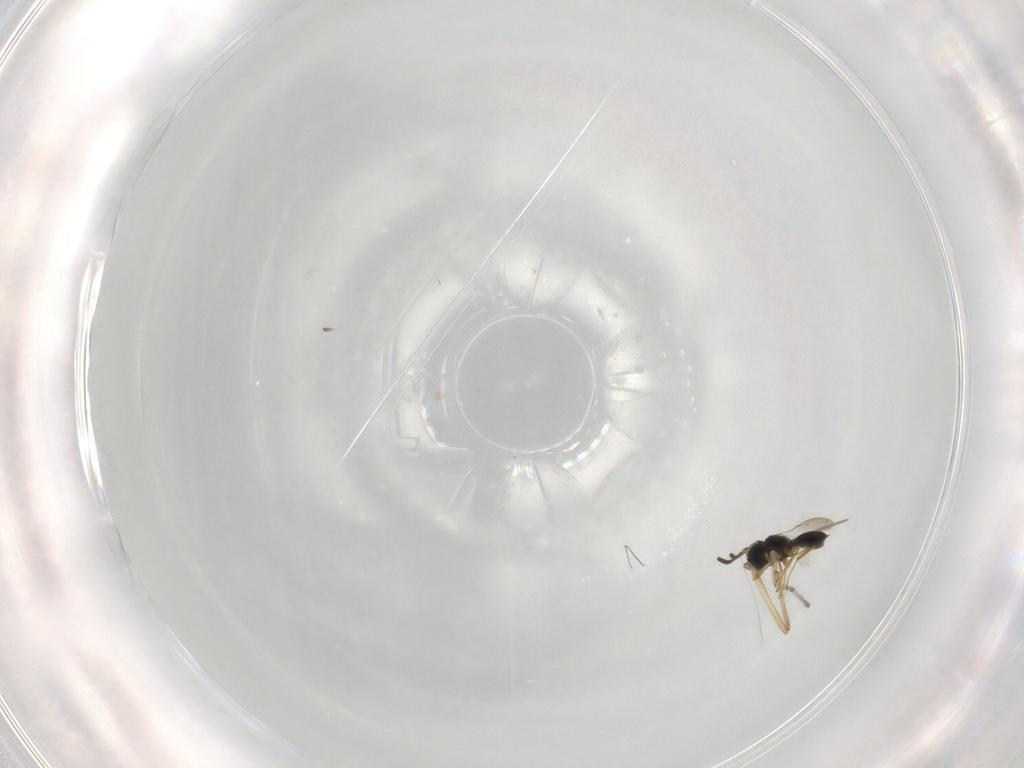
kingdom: Animalia
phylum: Arthropoda
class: Insecta
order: Hymenoptera
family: Scelionidae
